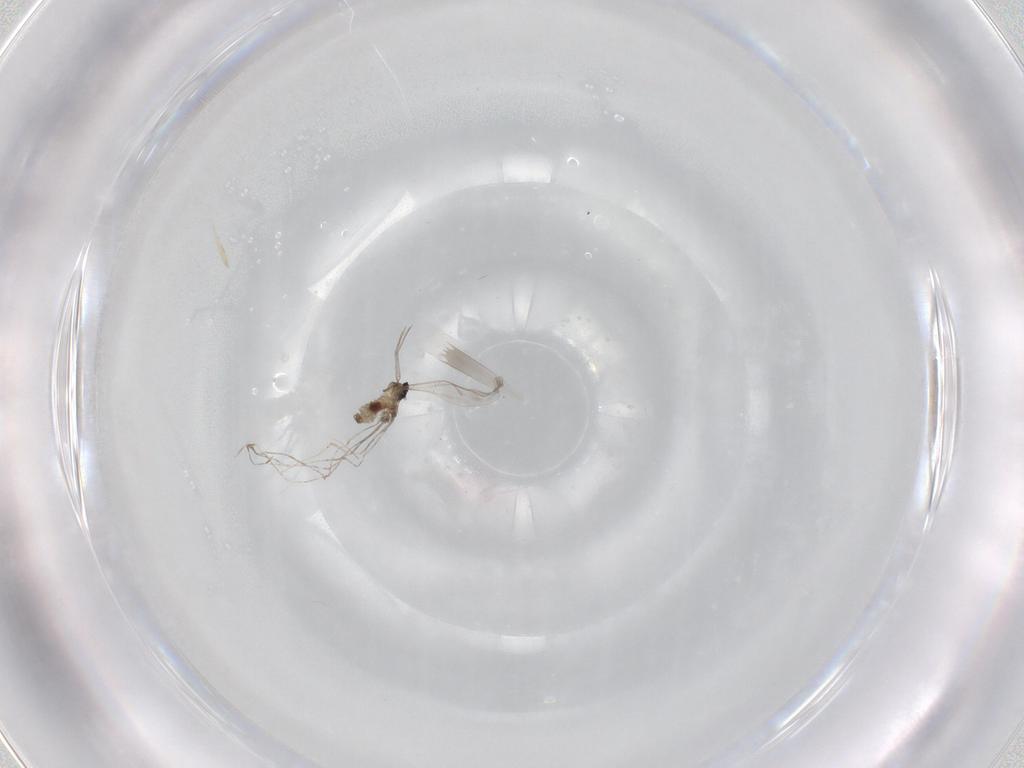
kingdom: Animalia
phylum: Arthropoda
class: Insecta
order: Diptera
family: Cecidomyiidae
